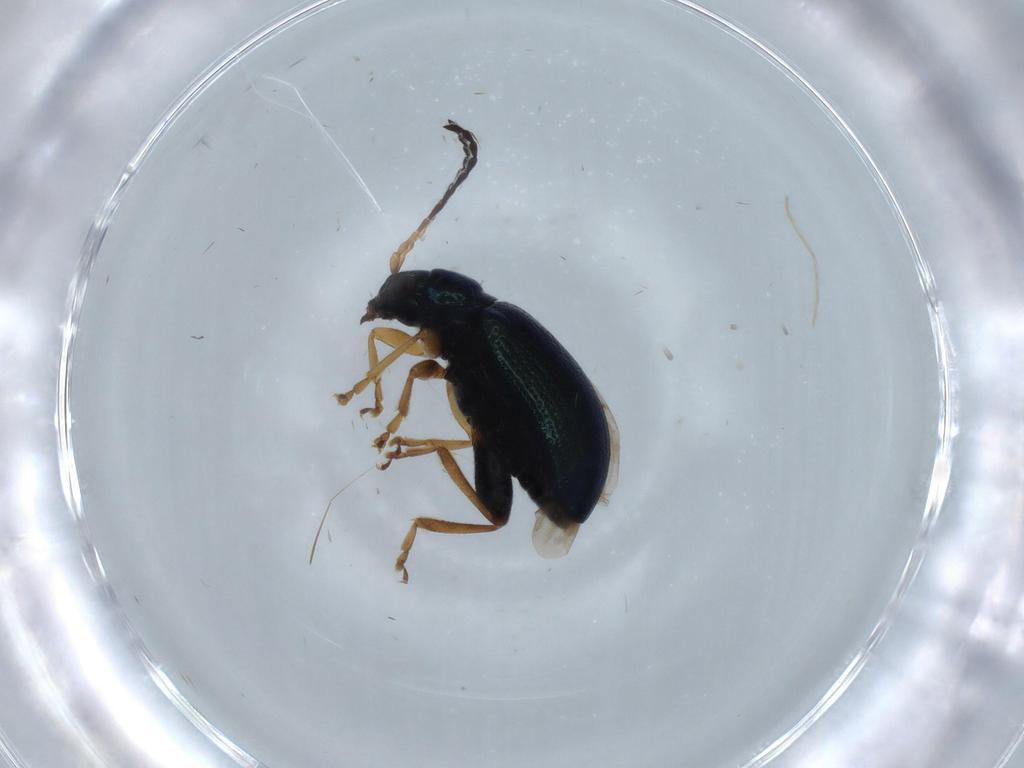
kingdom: Animalia
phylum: Arthropoda
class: Insecta
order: Coleoptera
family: Chrysomelidae
